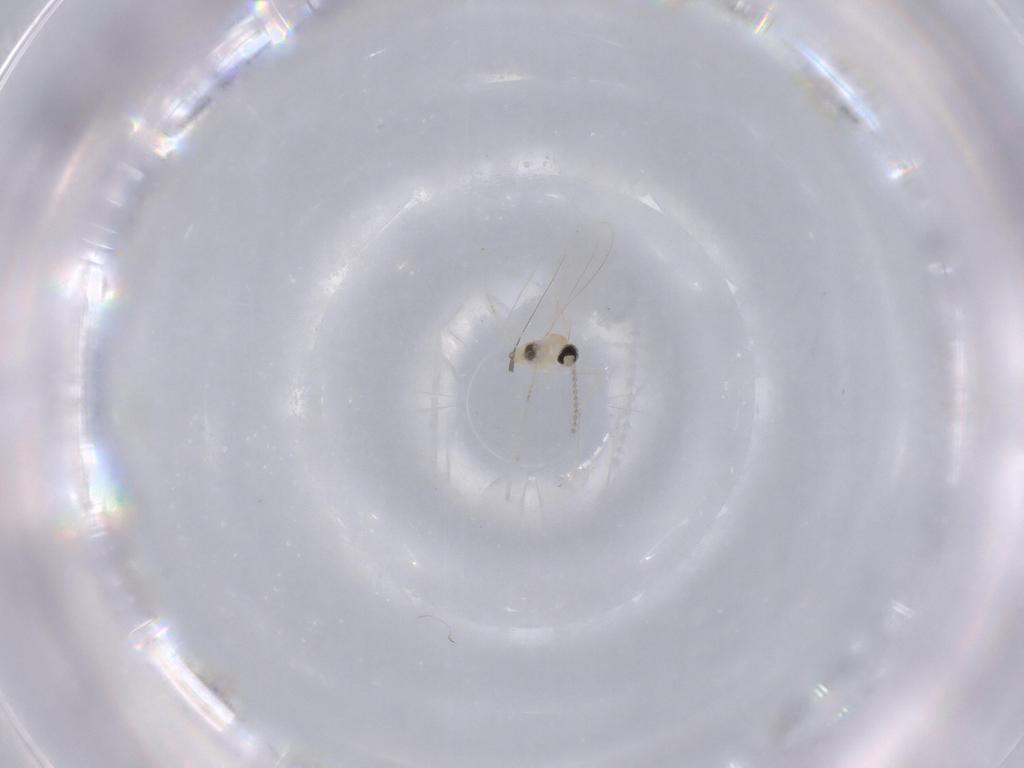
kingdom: Animalia
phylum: Arthropoda
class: Insecta
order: Diptera
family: Cecidomyiidae
